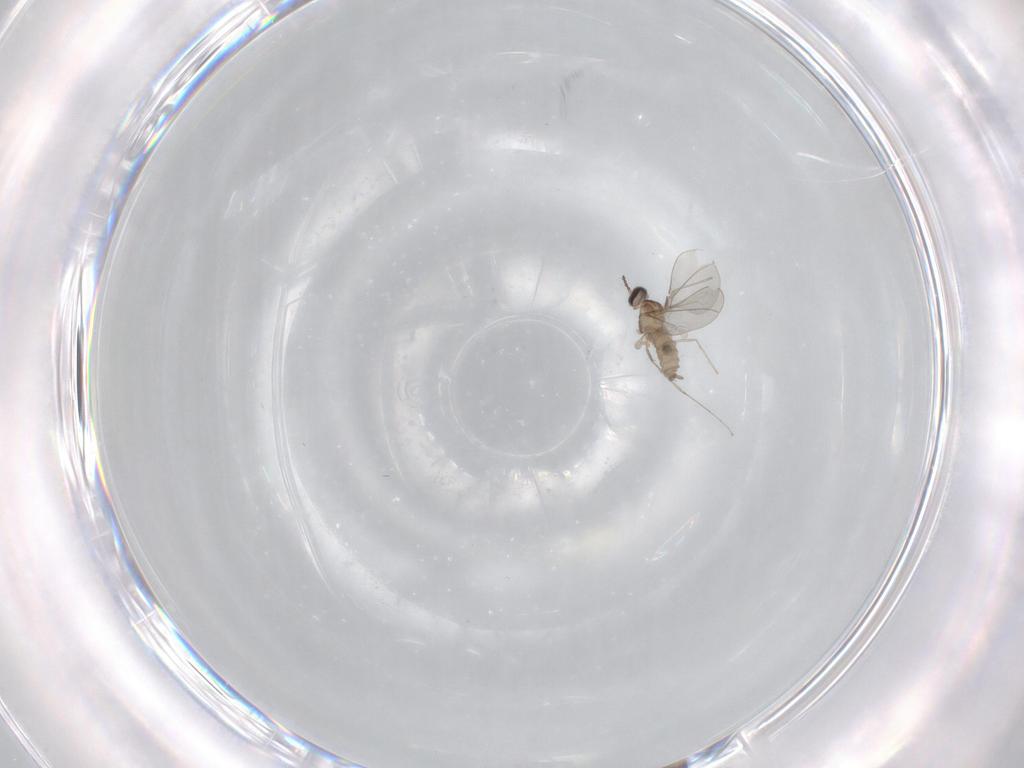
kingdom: Animalia
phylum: Arthropoda
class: Insecta
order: Diptera
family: Cecidomyiidae
